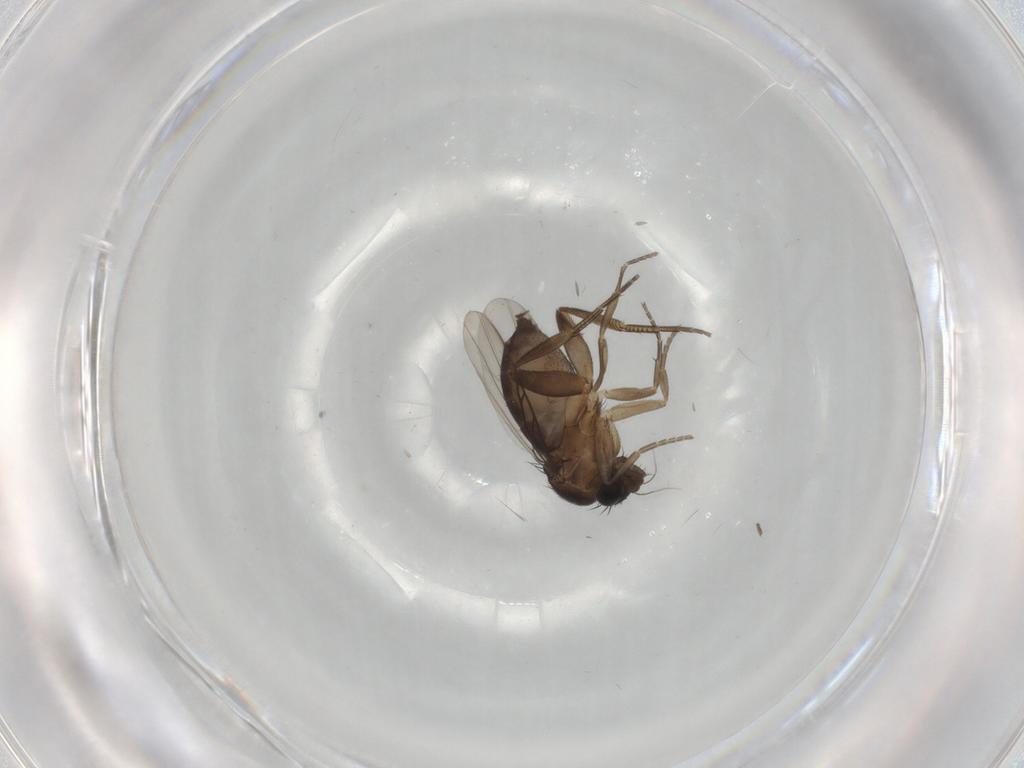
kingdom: Animalia
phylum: Arthropoda
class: Insecta
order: Diptera
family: Phoridae
